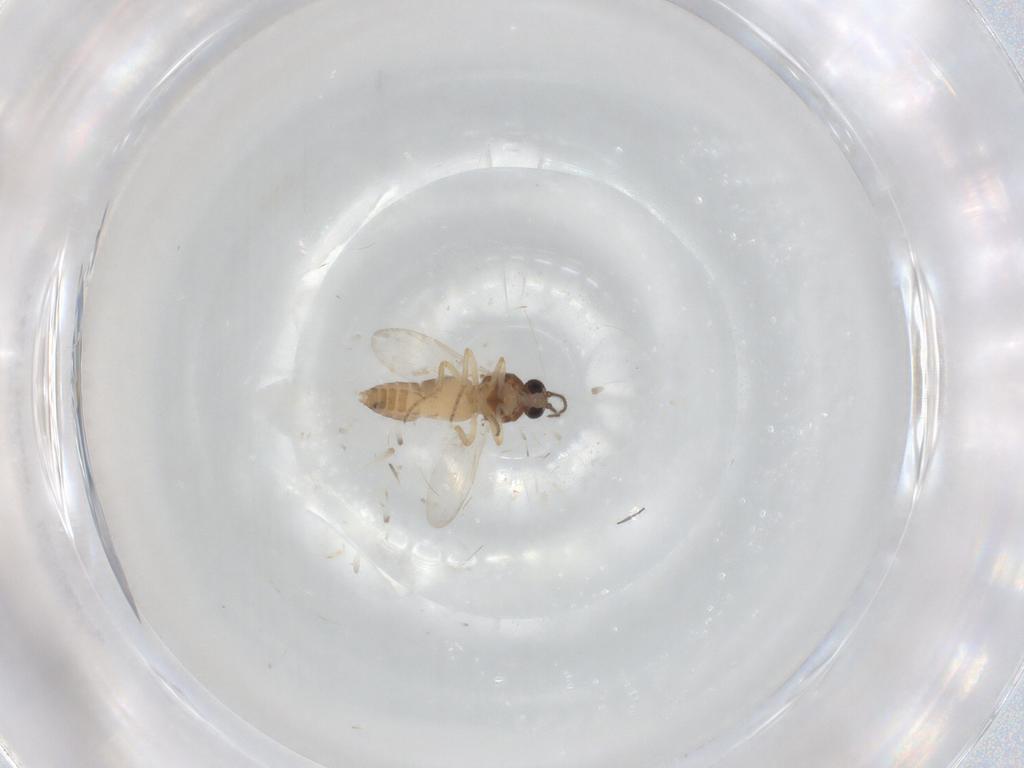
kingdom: Animalia
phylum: Arthropoda
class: Insecta
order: Diptera
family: Ceratopogonidae
